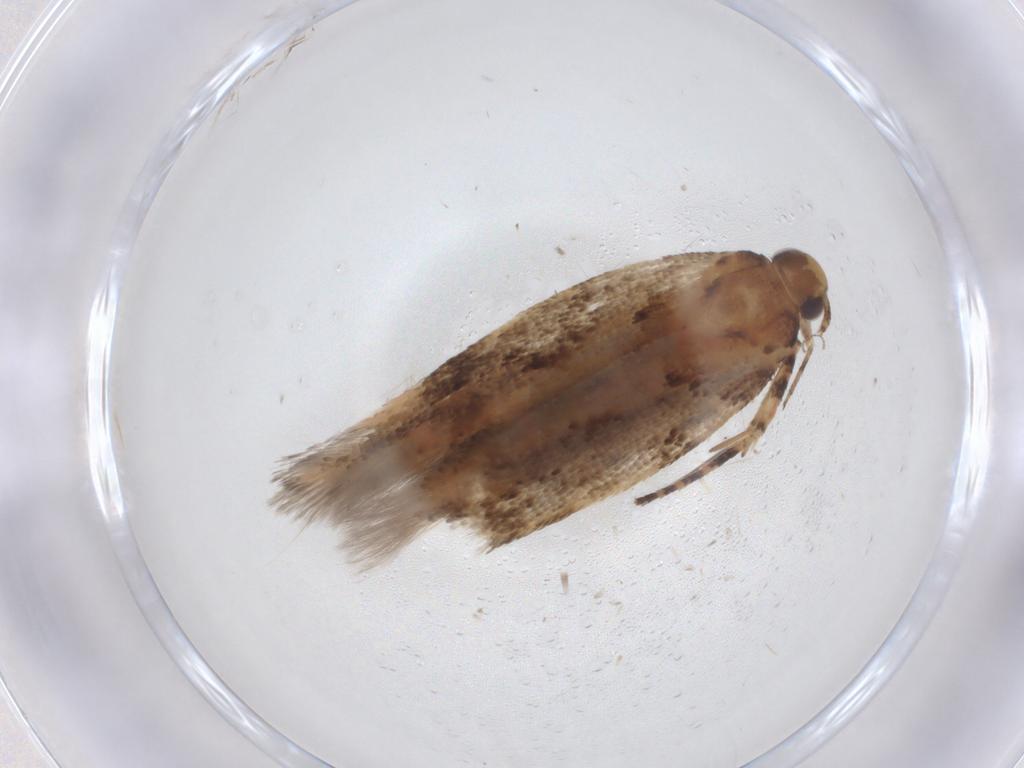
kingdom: Animalia
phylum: Arthropoda
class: Insecta
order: Lepidoptera
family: Gelechiidae
